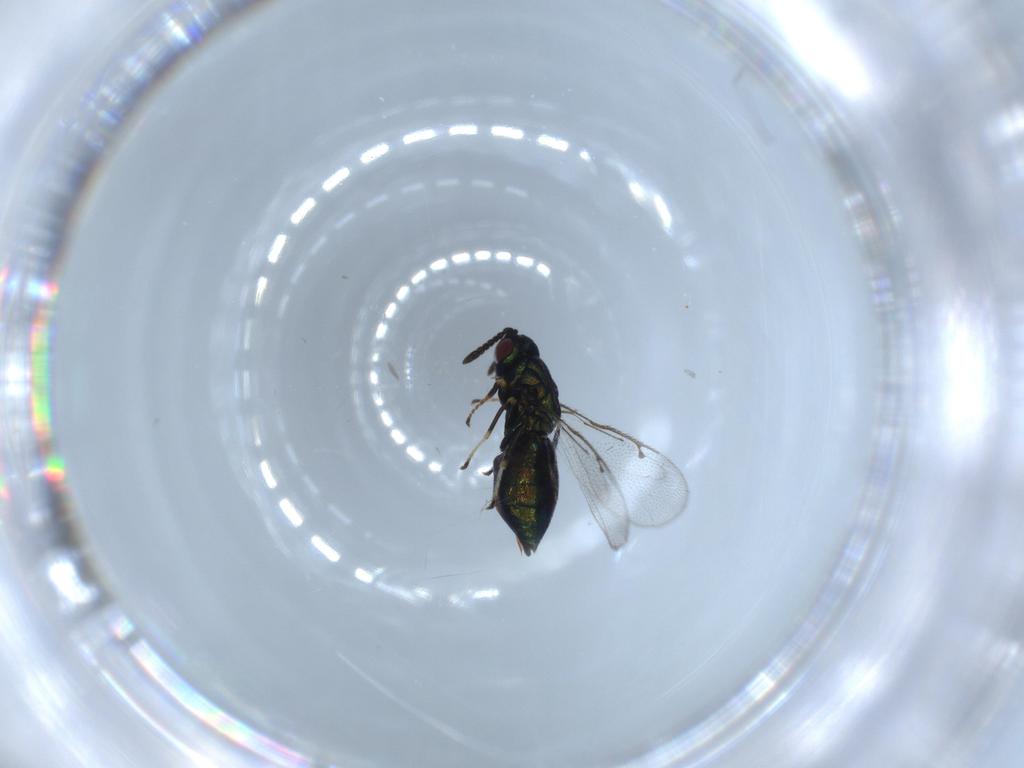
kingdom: Animalia
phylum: Arthropoda
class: Insecta
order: Hymenoptera
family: Pteromalidae
